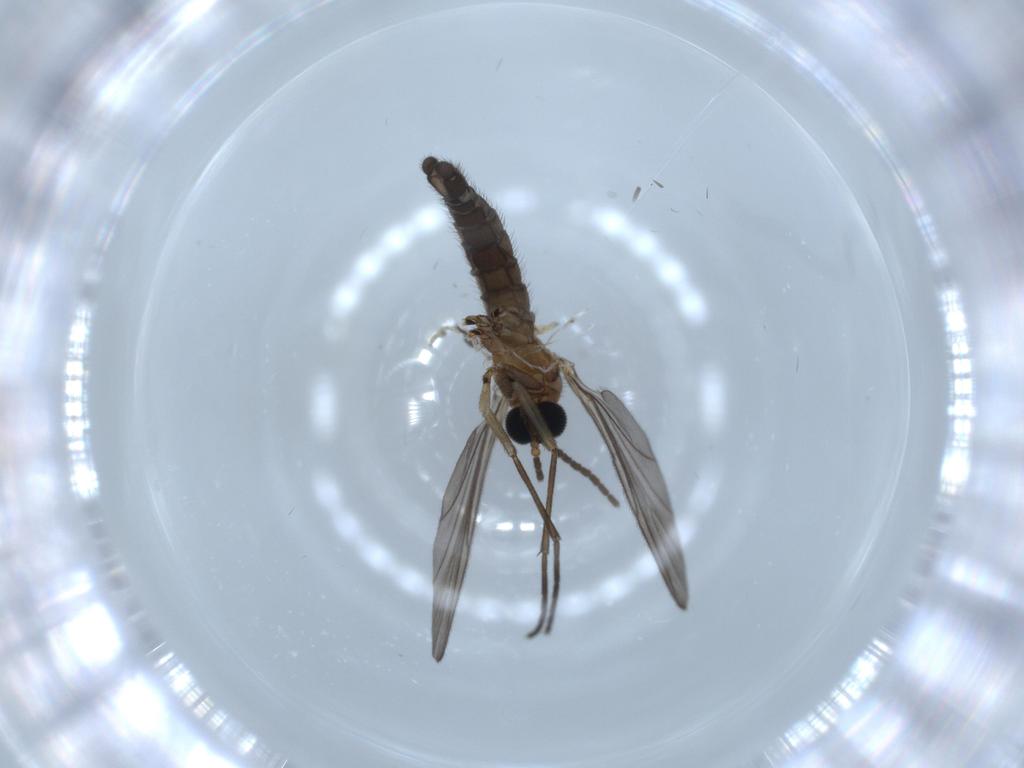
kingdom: Animalia
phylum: Arthropoda
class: Insecta
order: Diptera
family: Sciaridae
